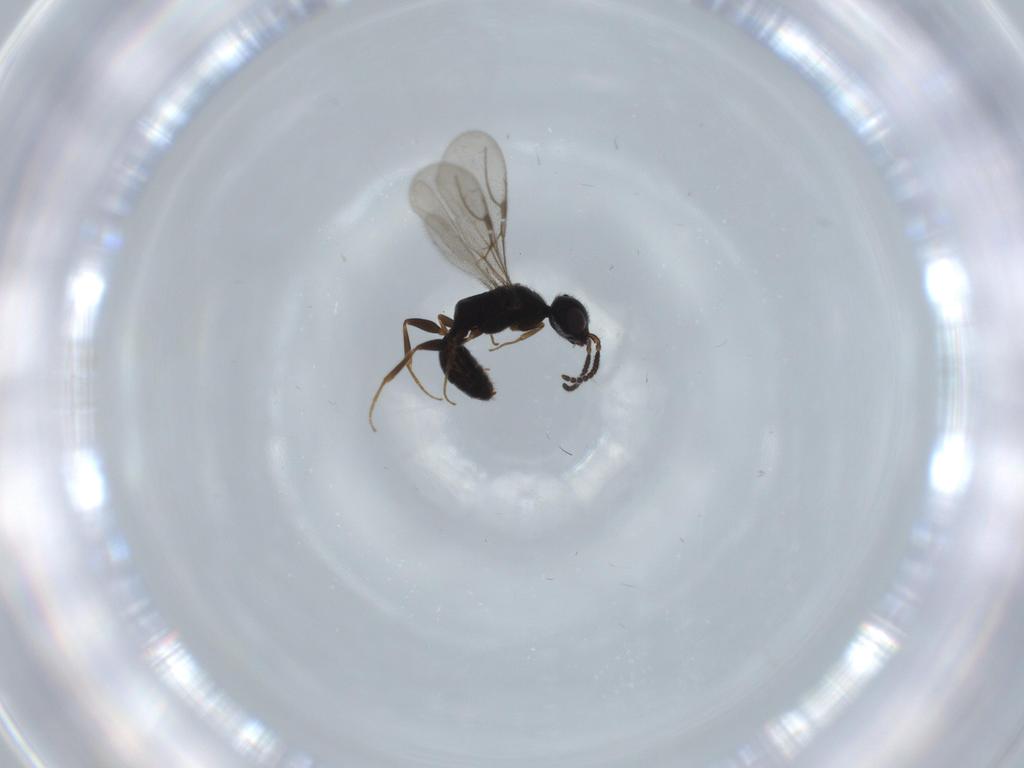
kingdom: Animalia
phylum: Arthropoda
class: Insecta
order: Hymenoptera
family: Bethylidae
